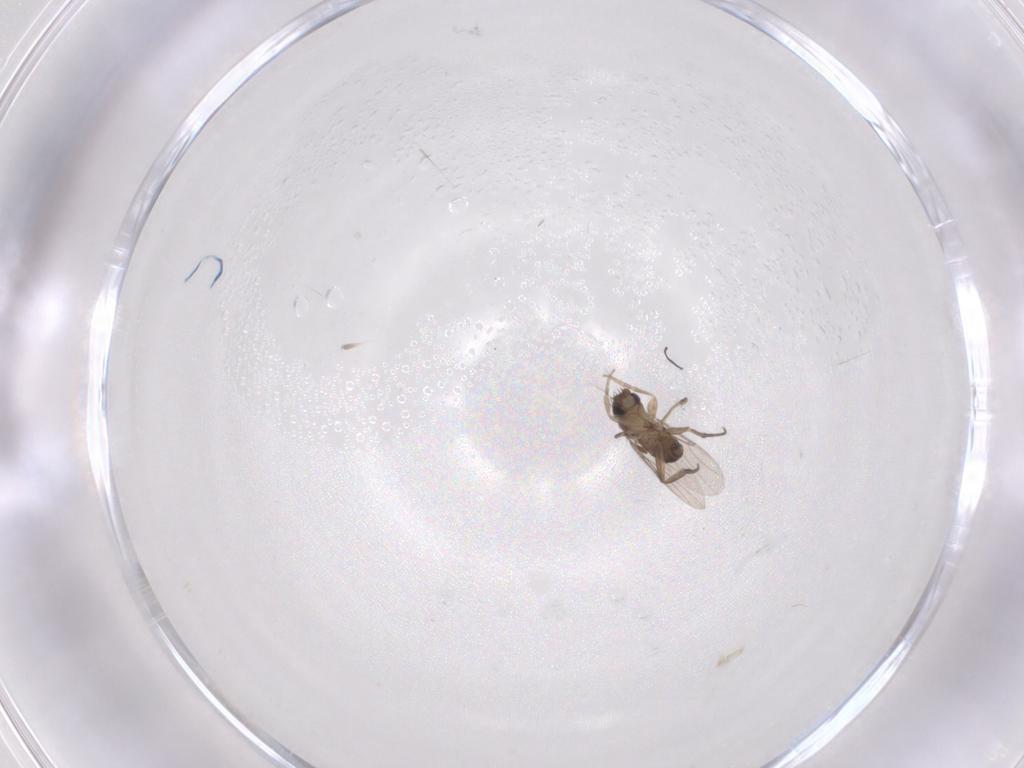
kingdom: Animalia
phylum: Arthropoda
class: Insecta
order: Diptera
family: Phoridae
